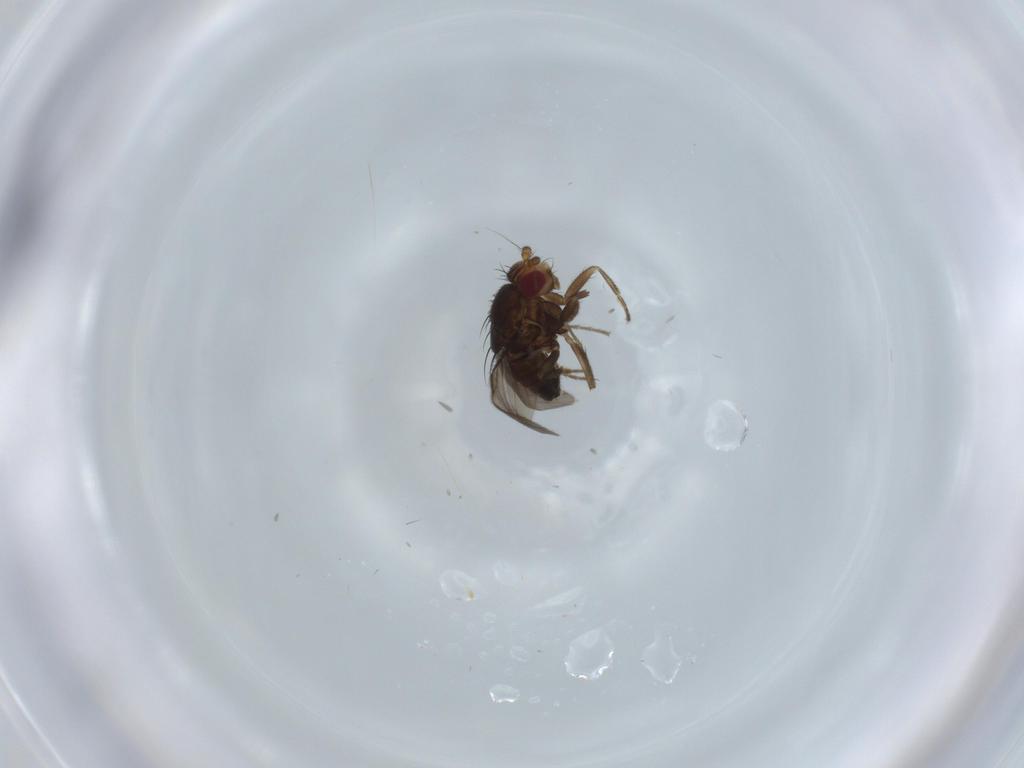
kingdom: Animalia
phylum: Arthropoda
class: Insecta
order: Diptera
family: Sphaeroceridae
